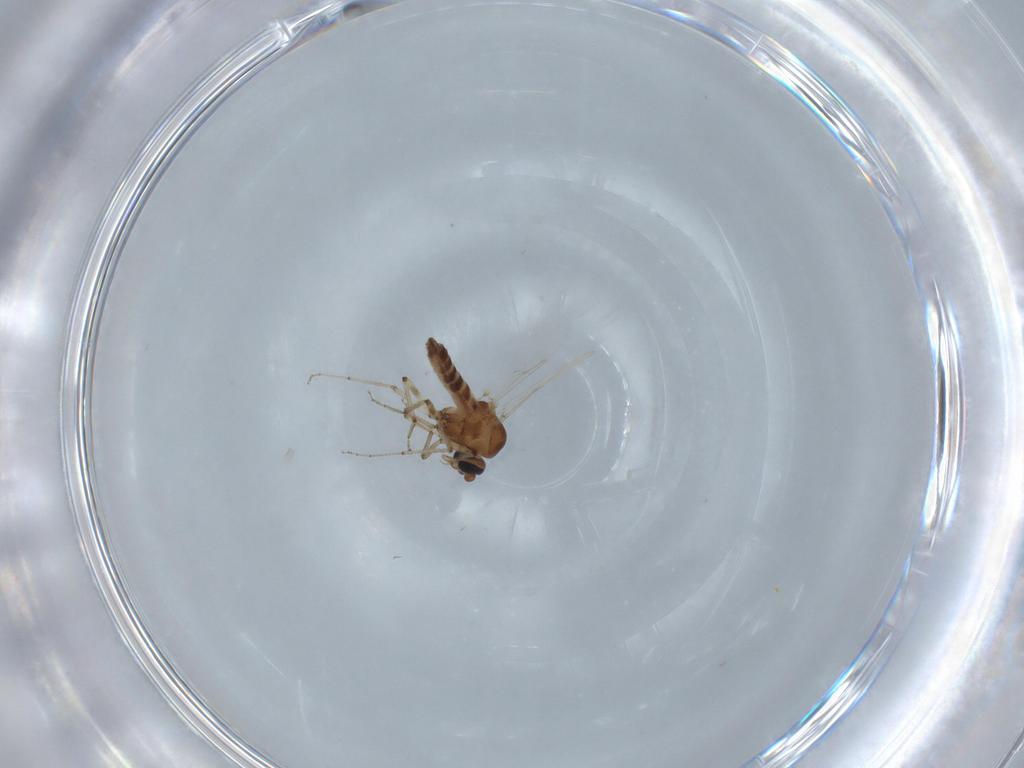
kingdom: Animalia
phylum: Arthropoda
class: Insecta
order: Diptera
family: Ceratopogonidae
